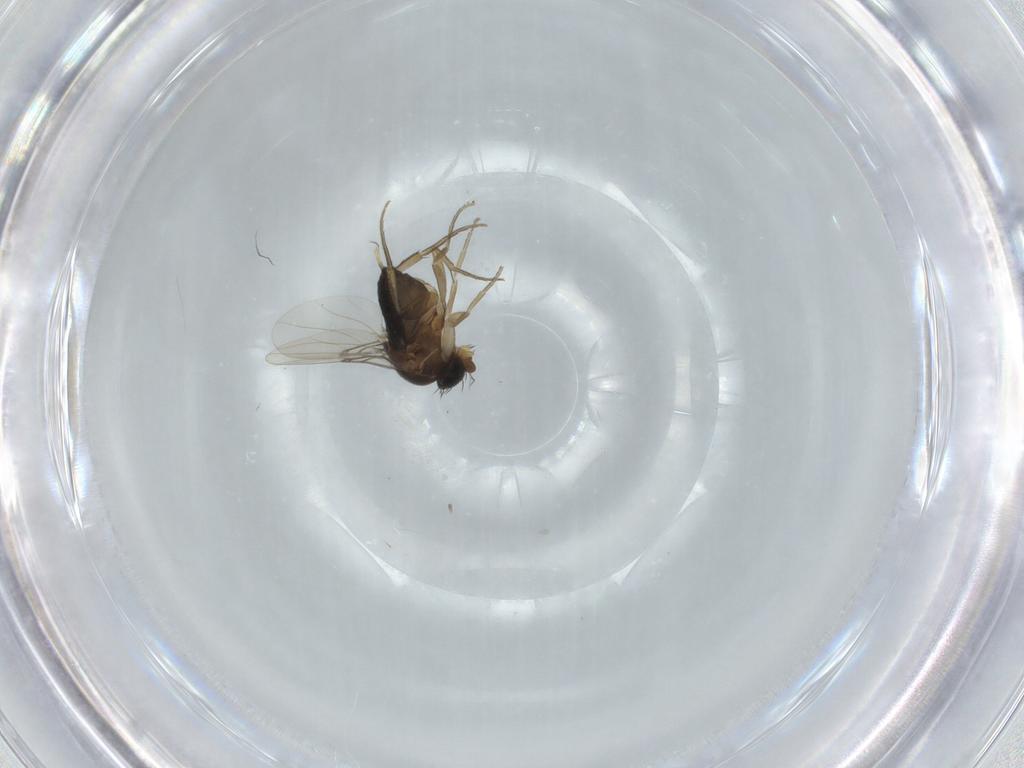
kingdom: Animalia
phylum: Arthropoda
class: Insecta
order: Diptera
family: Phoridae
